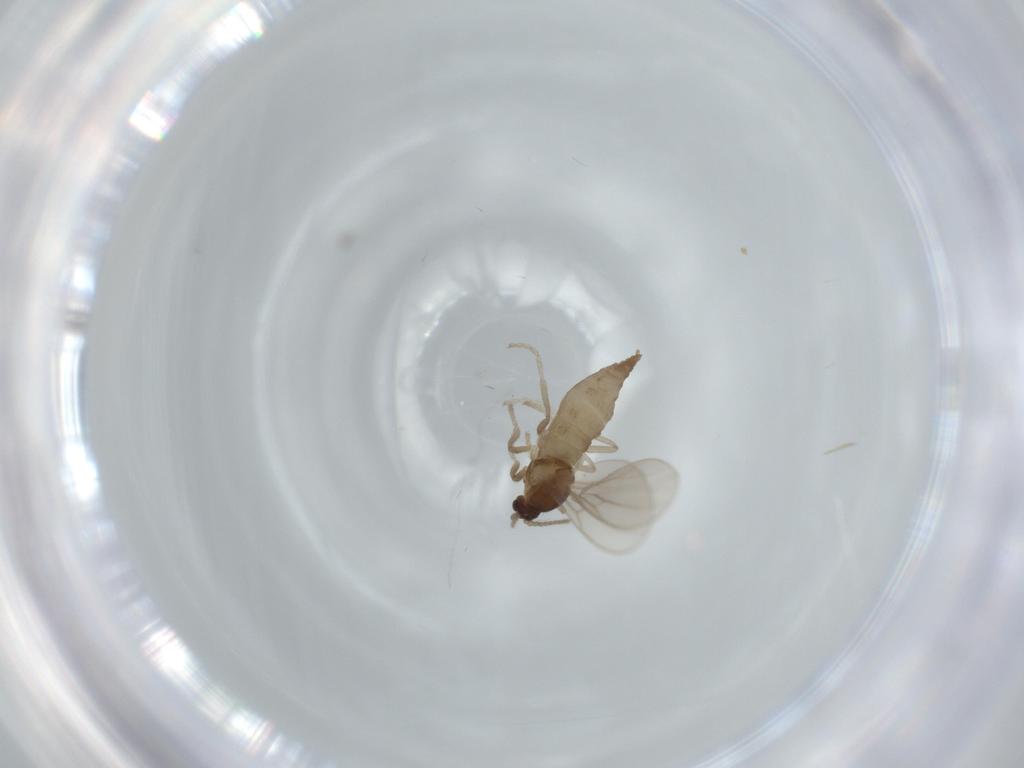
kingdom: Animalia
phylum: Arthropoda
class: Insecta
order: Diptera
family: Cecidomyiidae
